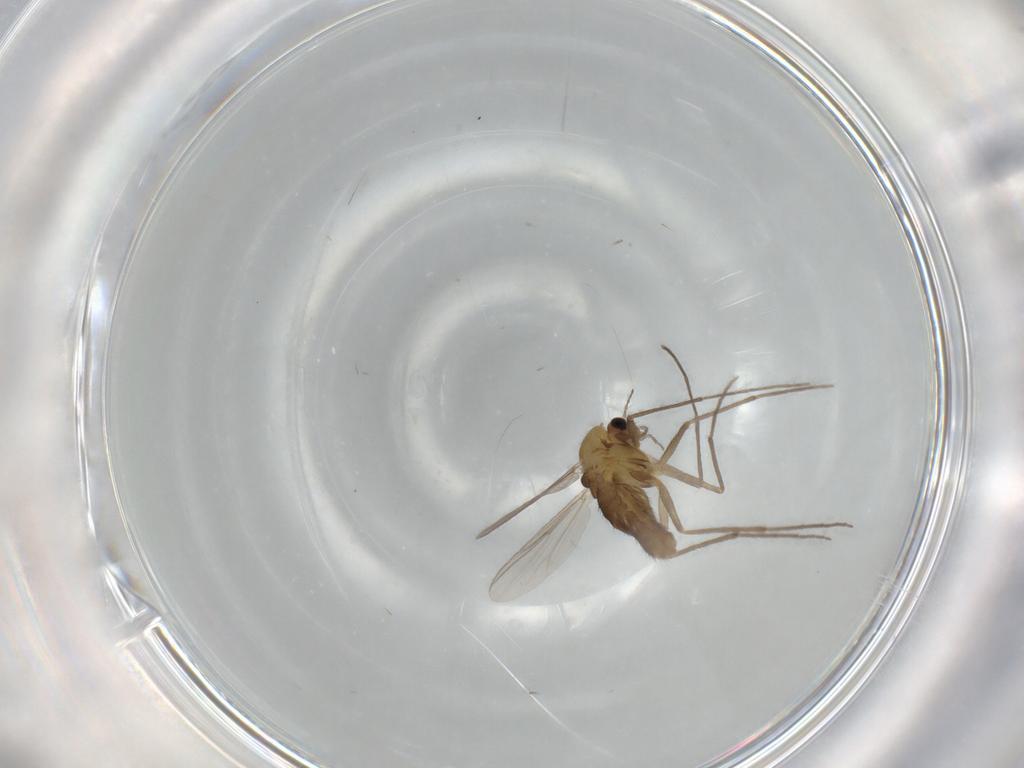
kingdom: Animalia
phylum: Arthropoda
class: Insecta
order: Diptera
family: Chironomidae
